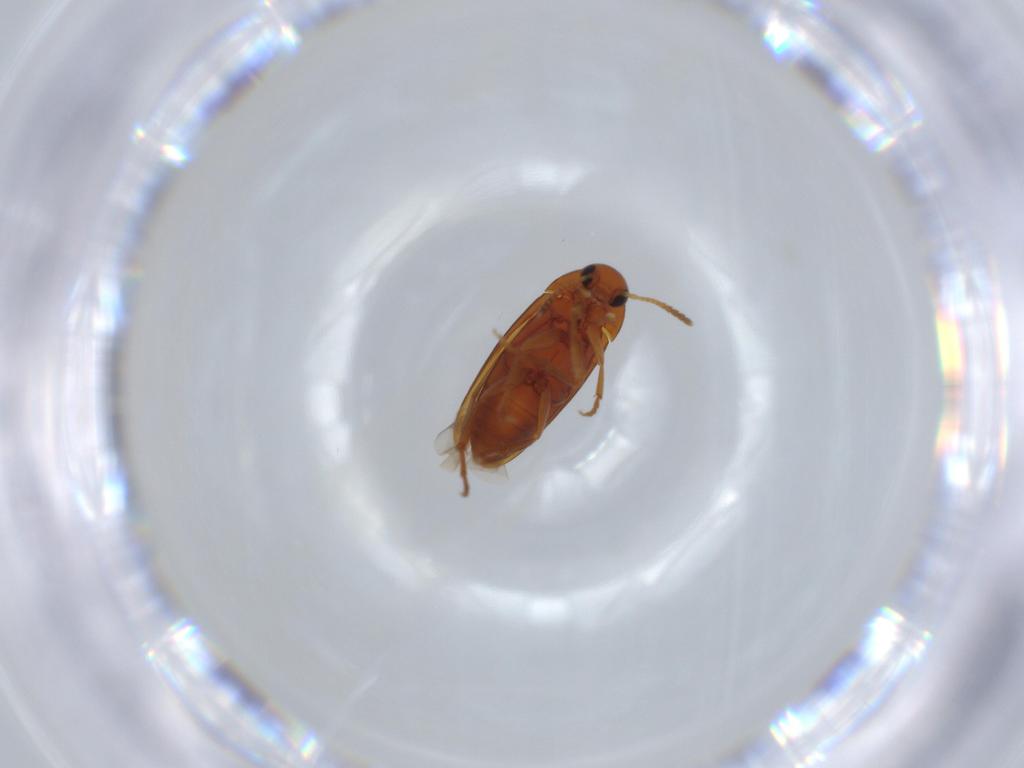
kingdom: Animalia
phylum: Arthropoda
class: Insecta
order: Coleoptera
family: Scraptiidae
